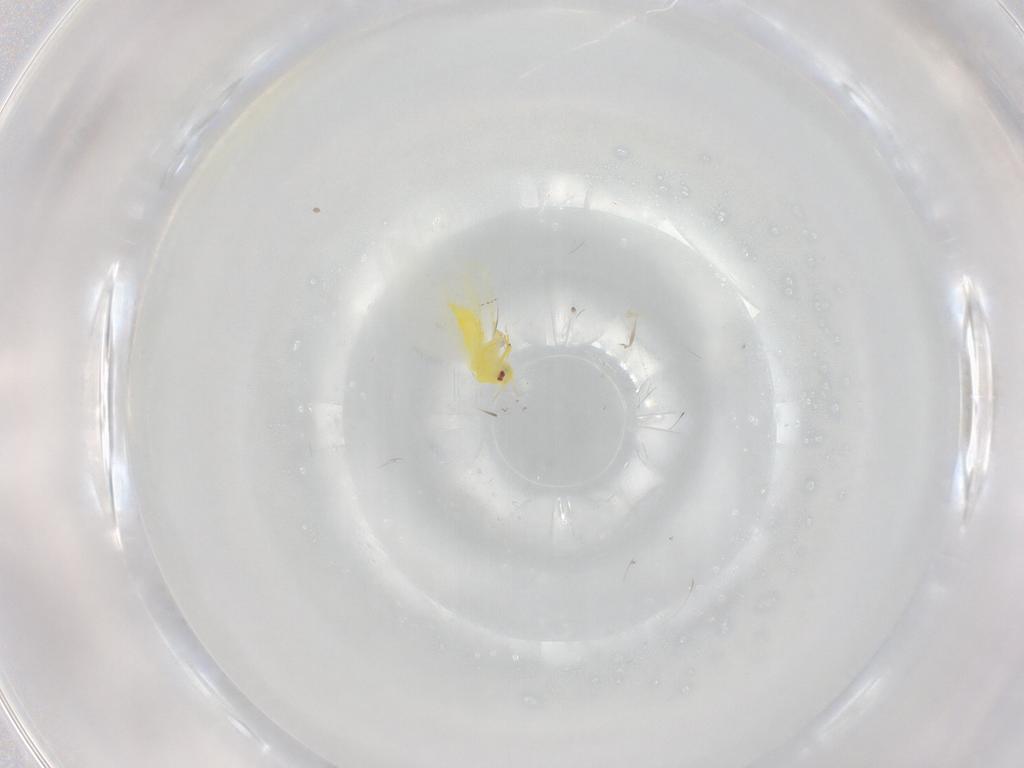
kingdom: Animalia
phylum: Arthropoda
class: Insecta
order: Hemiptera
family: Aleyrodidae
